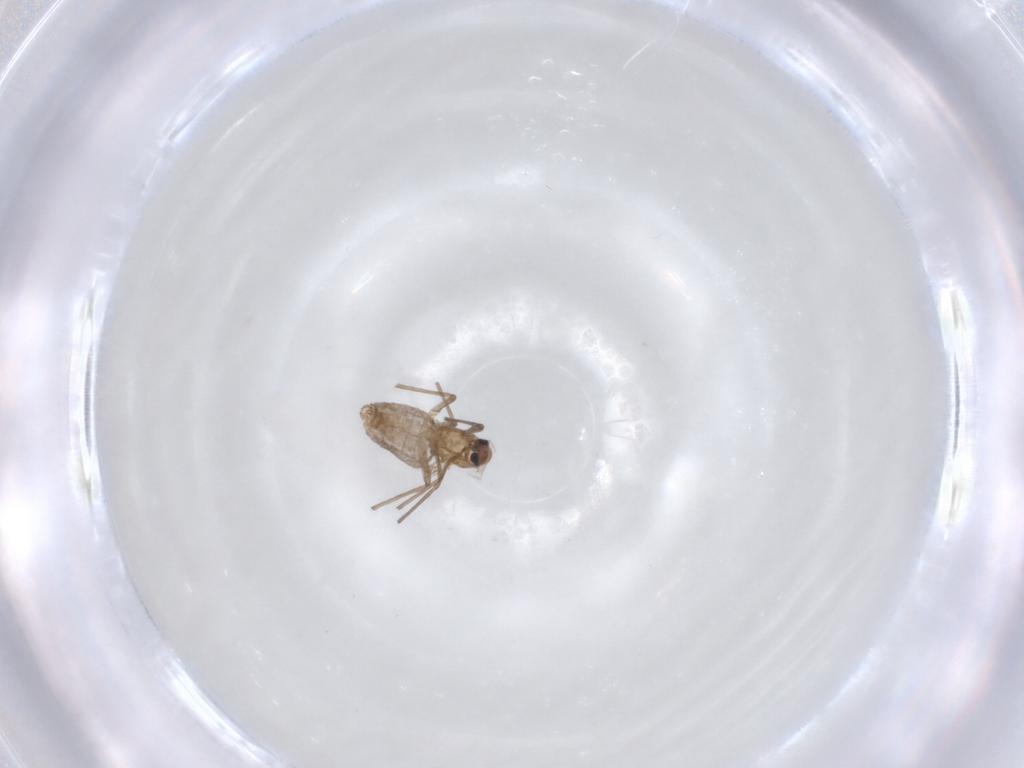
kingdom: Animalia
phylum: Arthropoda
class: Insecta
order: Diptera
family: Chironomidae
